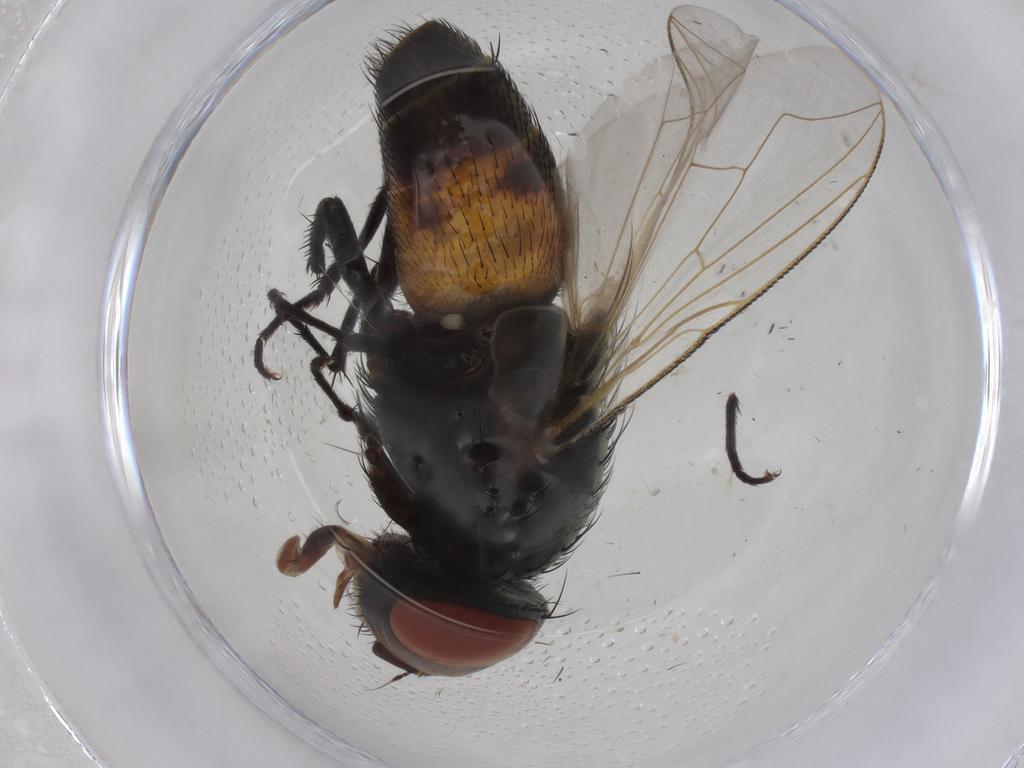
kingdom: Animalia
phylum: Arthropoda
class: Insecta
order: Diptera
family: Sarcophagidae
